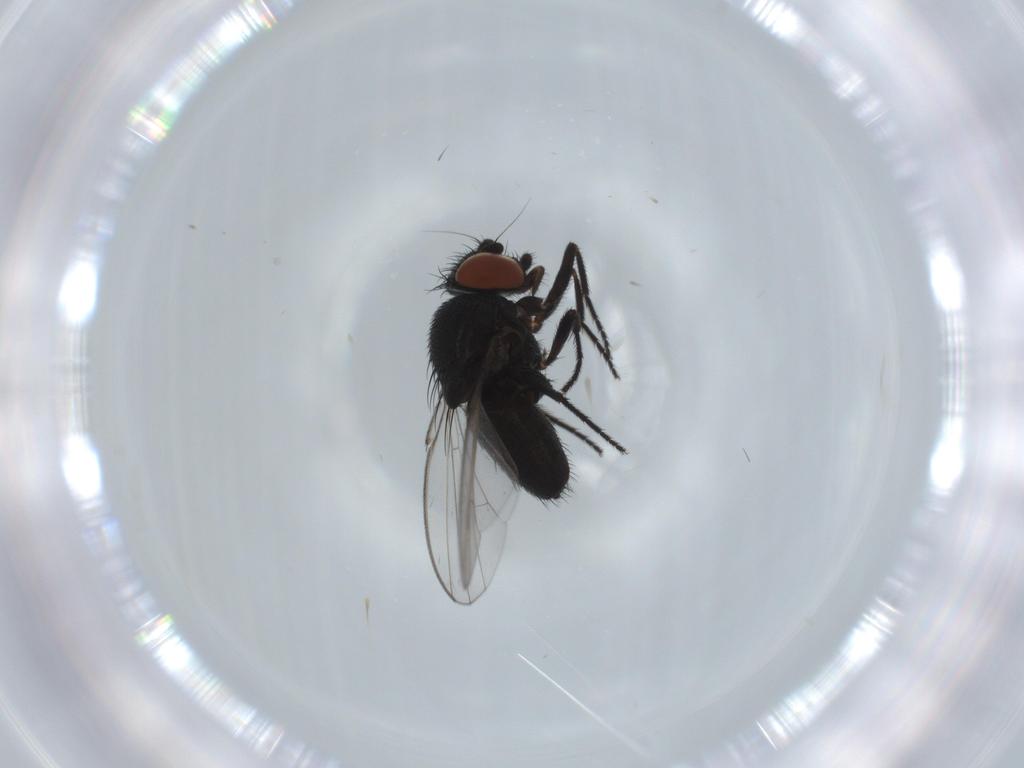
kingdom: Animalia
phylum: Arthropoda
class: Insecta
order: Diptera
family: Milichiidae
